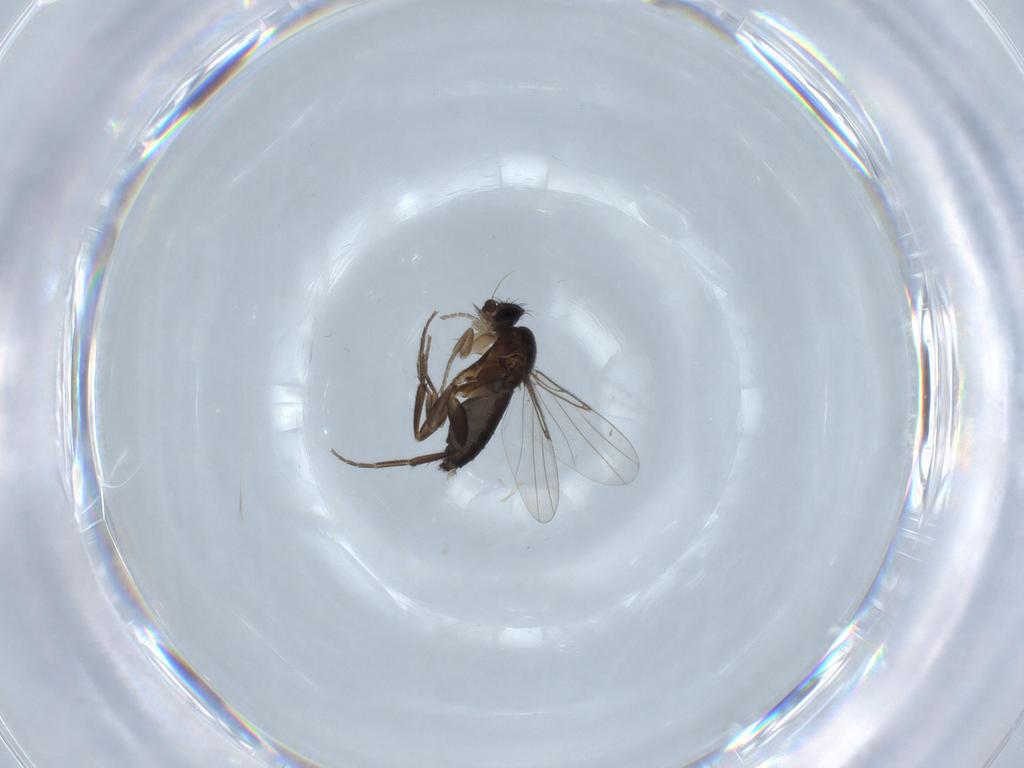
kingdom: Animalia
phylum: Arthropoda
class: Insecta
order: Diptera
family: Phoridae
